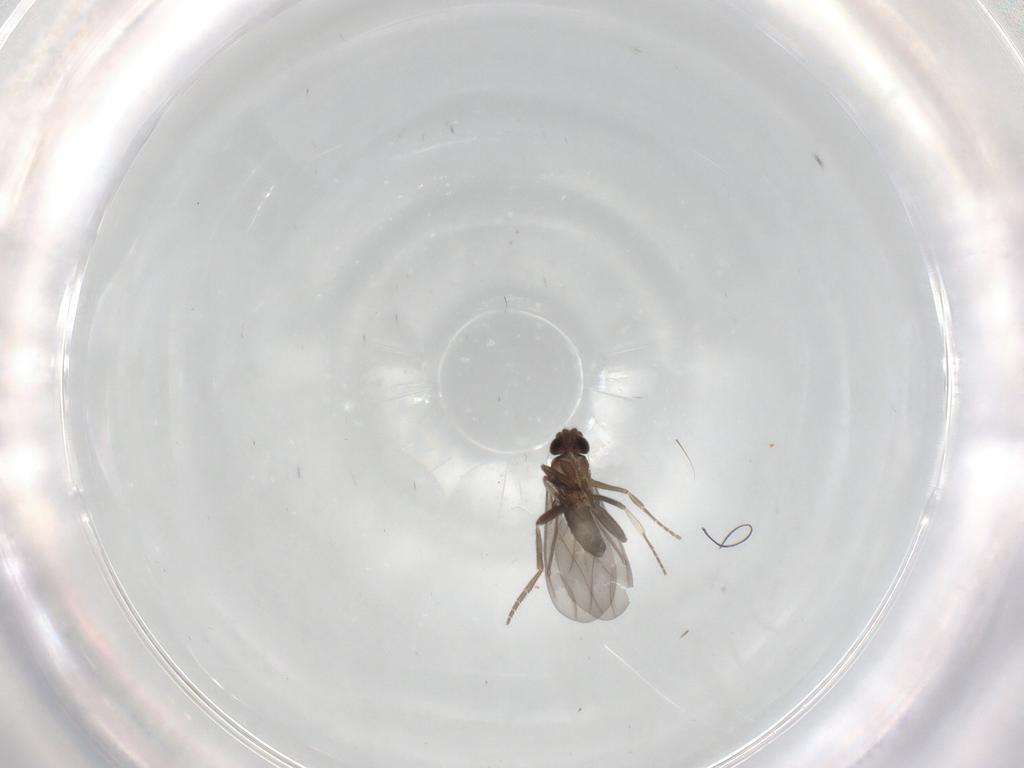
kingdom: Animalia
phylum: Arthropoda
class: Insecta
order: Diptera
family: Phoridae
